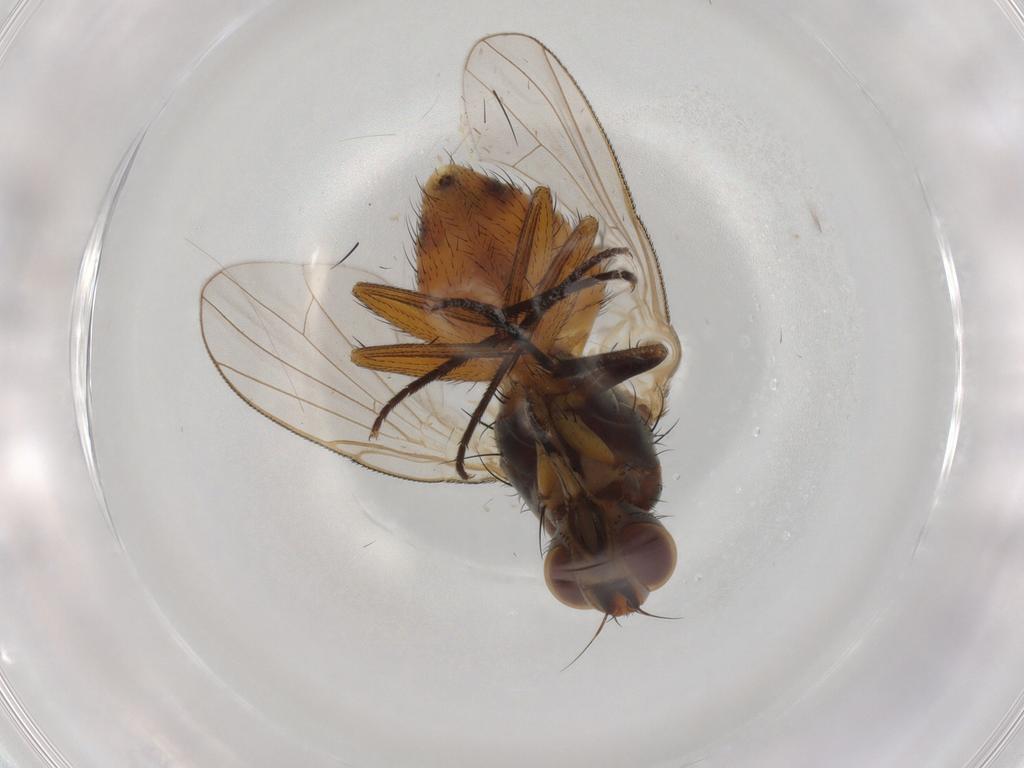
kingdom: Animalia
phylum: Arthropoda
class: Insecta
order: Diptera
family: Muscidae
